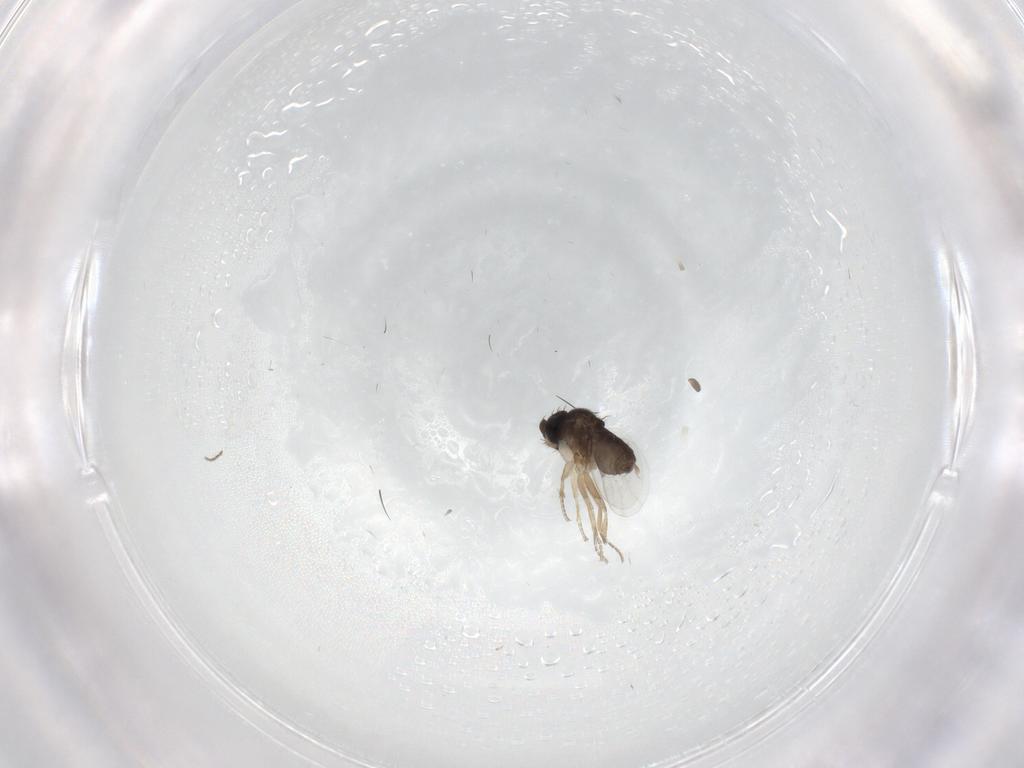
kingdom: Animalia
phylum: Arthropoda
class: Insecta
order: Diptera
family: Phoridae
